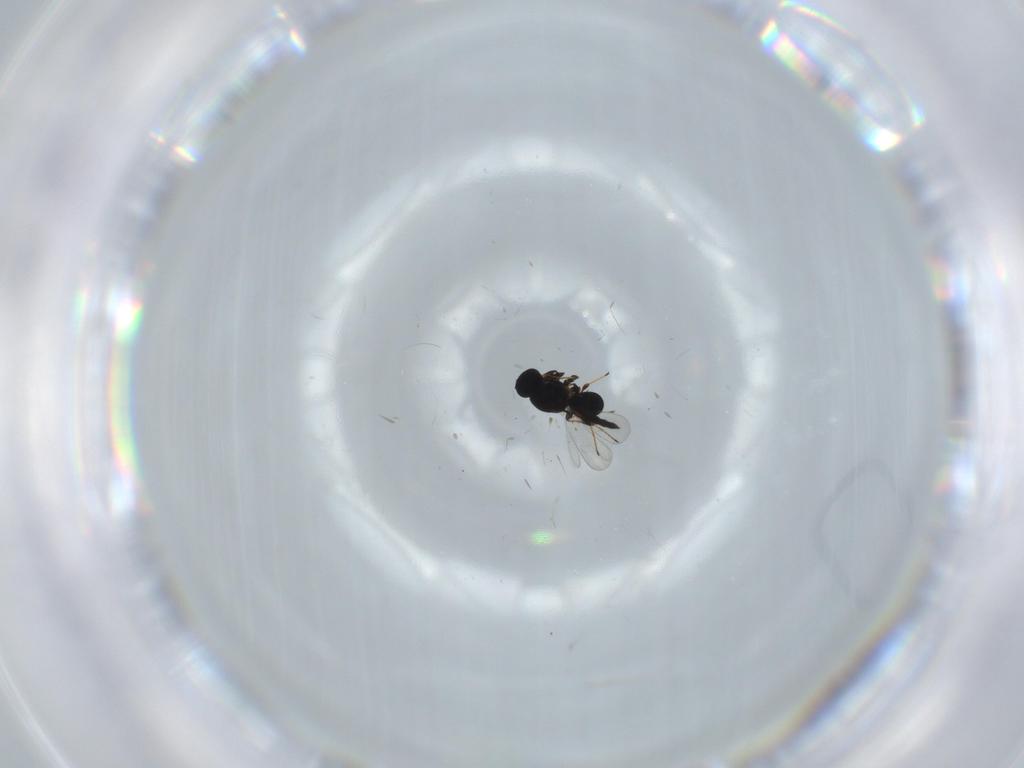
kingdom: Animalia
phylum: Arthropoda
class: Insecta
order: Hymenoptera
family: Platygastridae
